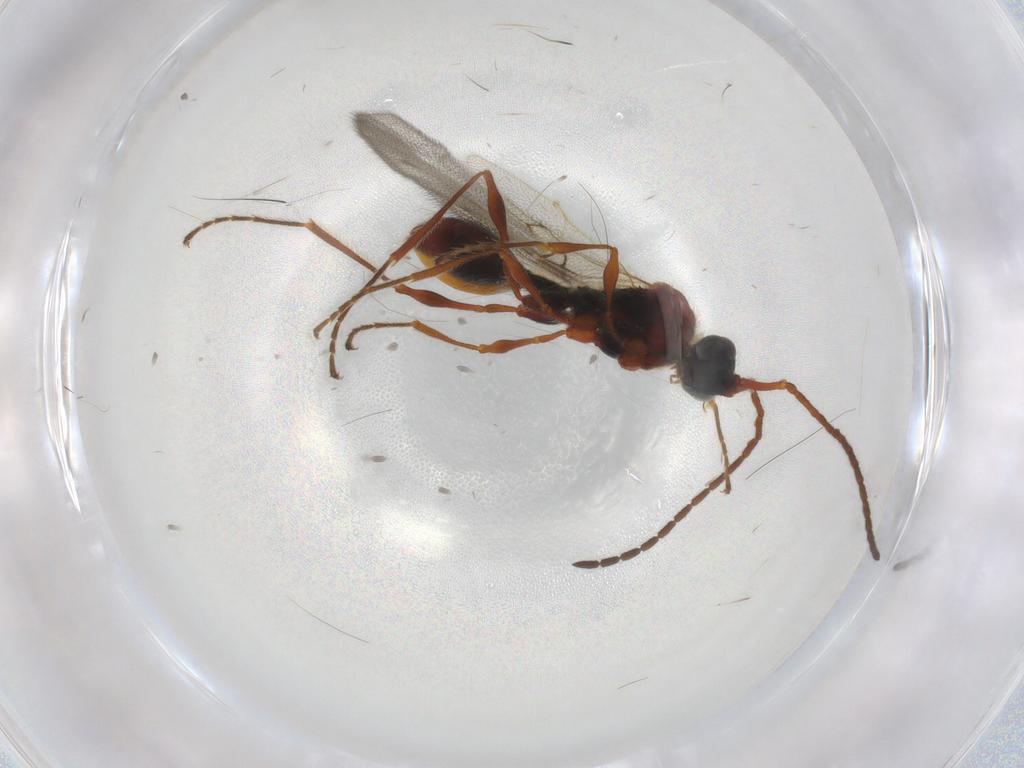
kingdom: Animalia
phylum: Arthropoda
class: Insecta
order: Hymenoptera
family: Diapriidae
